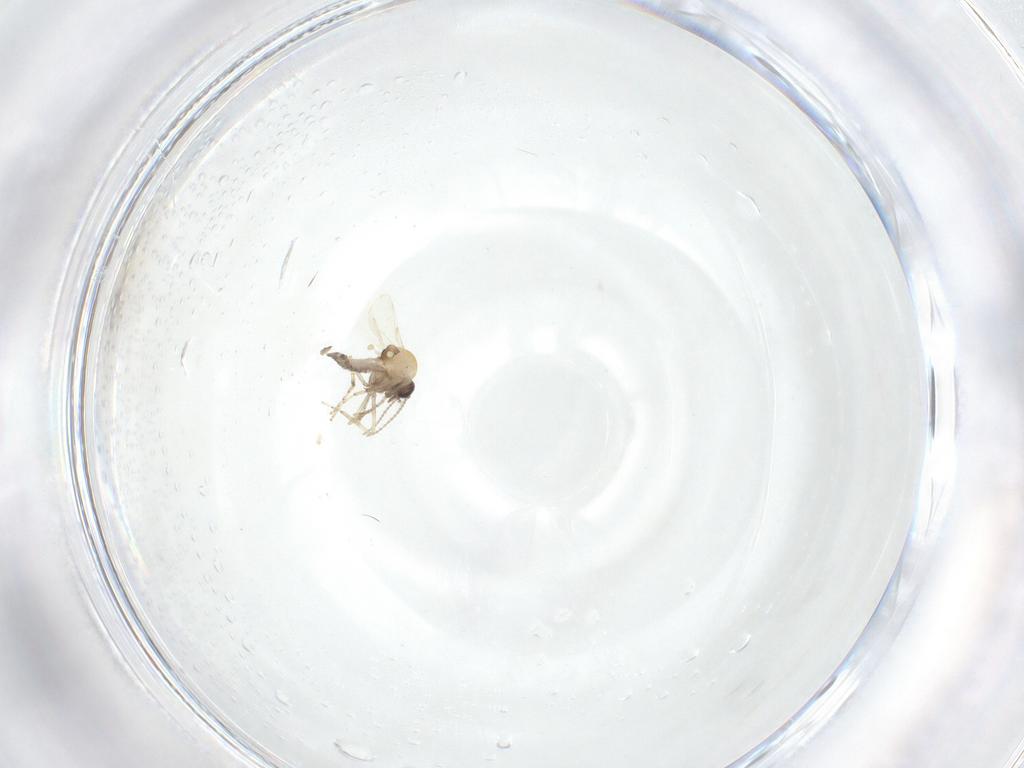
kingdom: Animalia
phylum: Arthropoda
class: Insecta
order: Diptera
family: Ceratopogonidae
